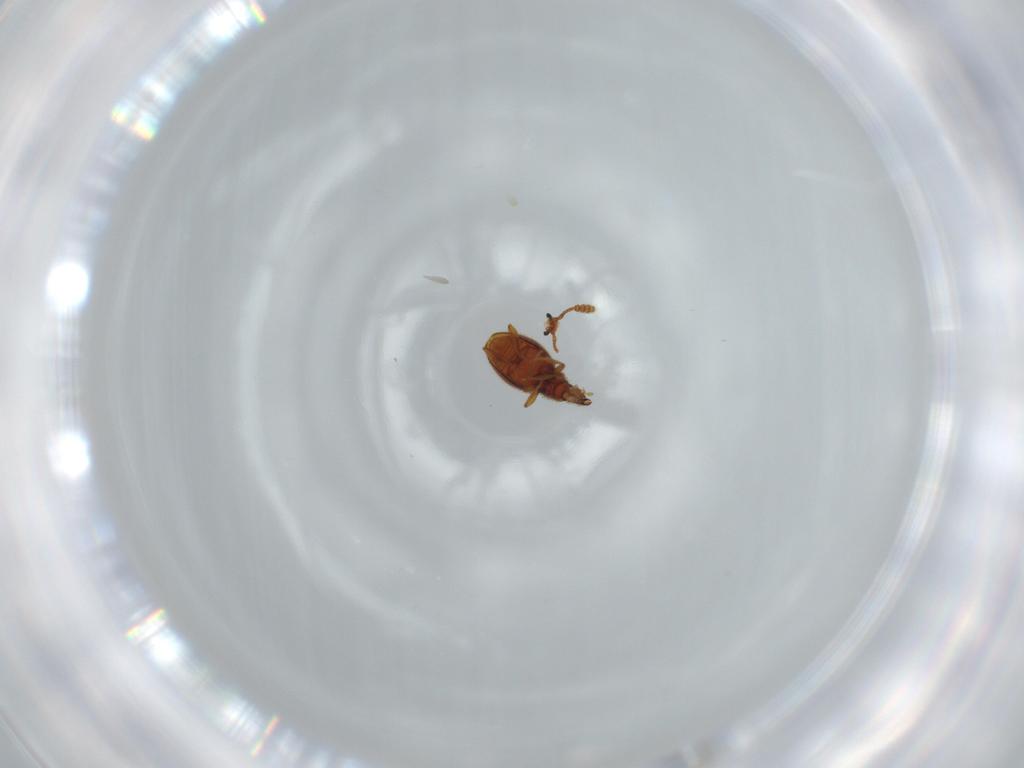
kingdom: Animalia
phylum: Arthropoda
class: Insecta
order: Coleoptera
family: Staphylinidae
